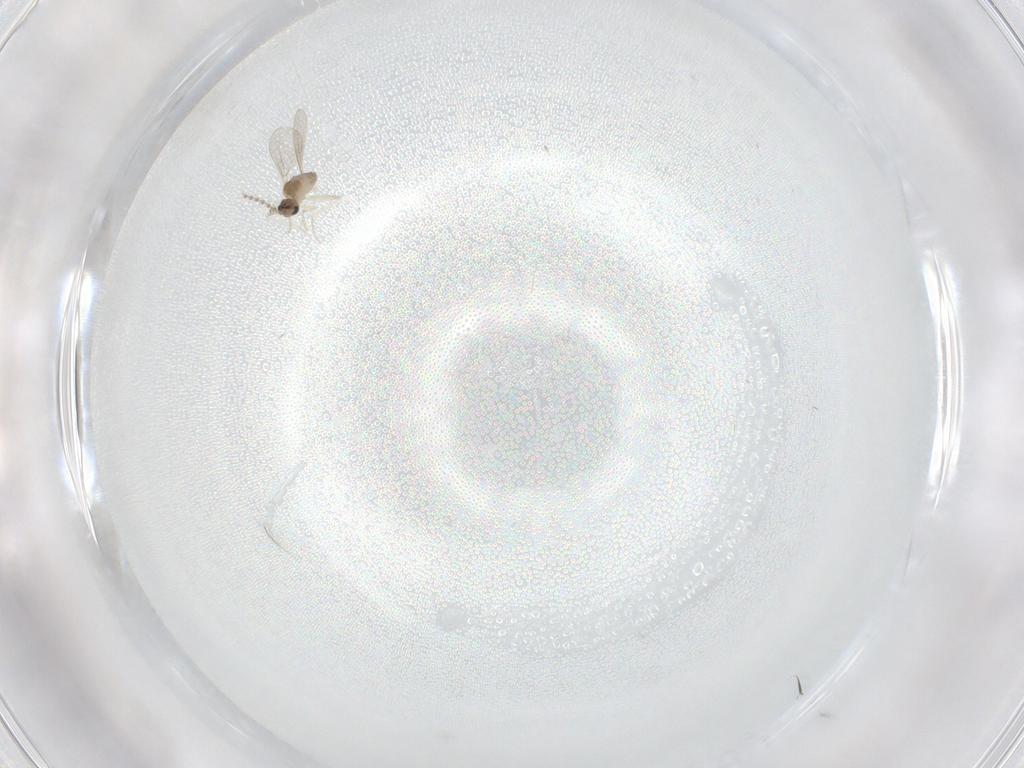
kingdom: Animalia
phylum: Arthropoda
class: Insecta
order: Diptera
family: Cecidomyiidae
